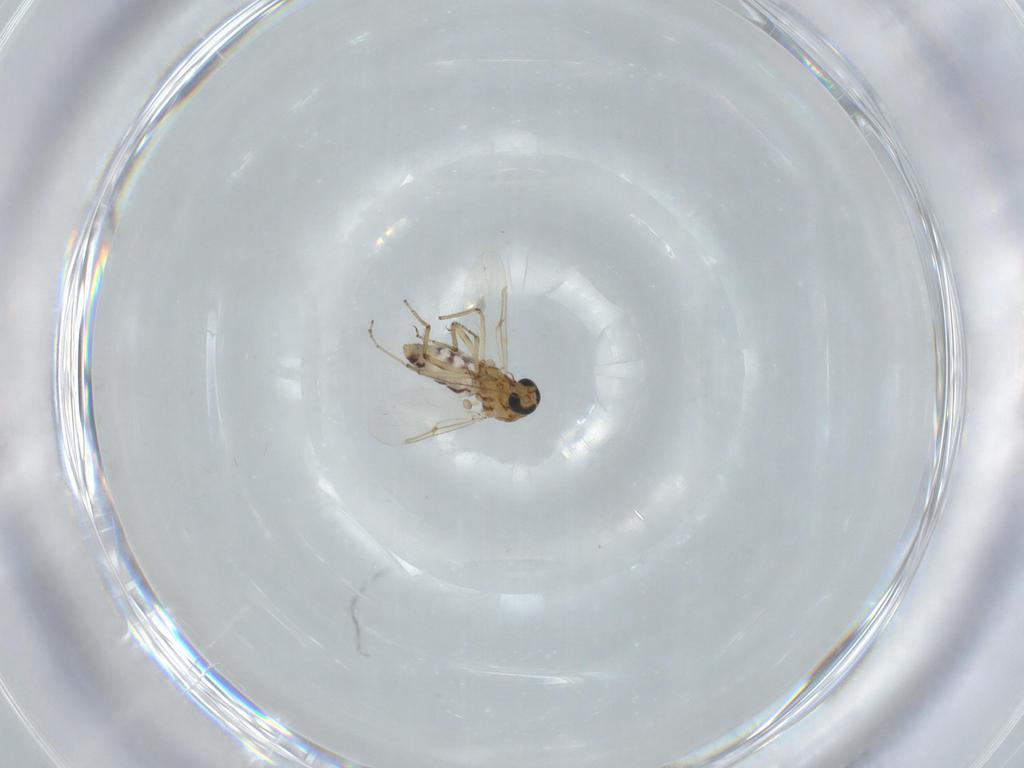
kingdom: Animalia
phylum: Arthropoda
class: Insecta
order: Diptera
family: Ceratopogonidae
